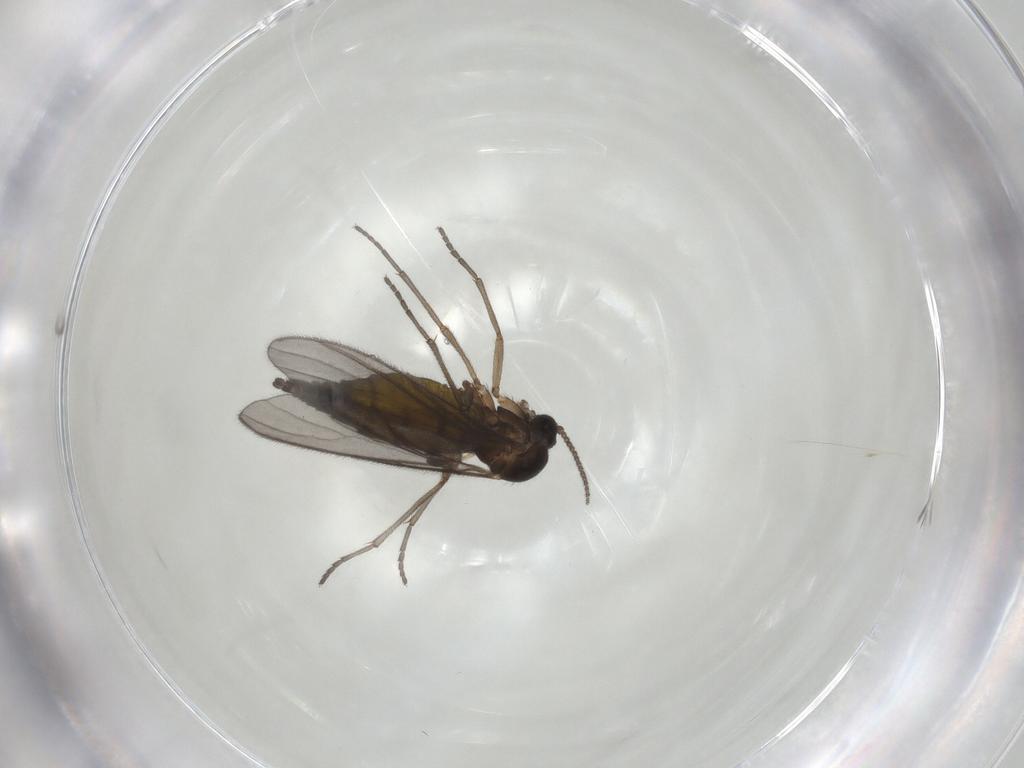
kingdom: Animalia
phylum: Arthropoda
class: Insecta
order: Diptera
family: Sciaridae
